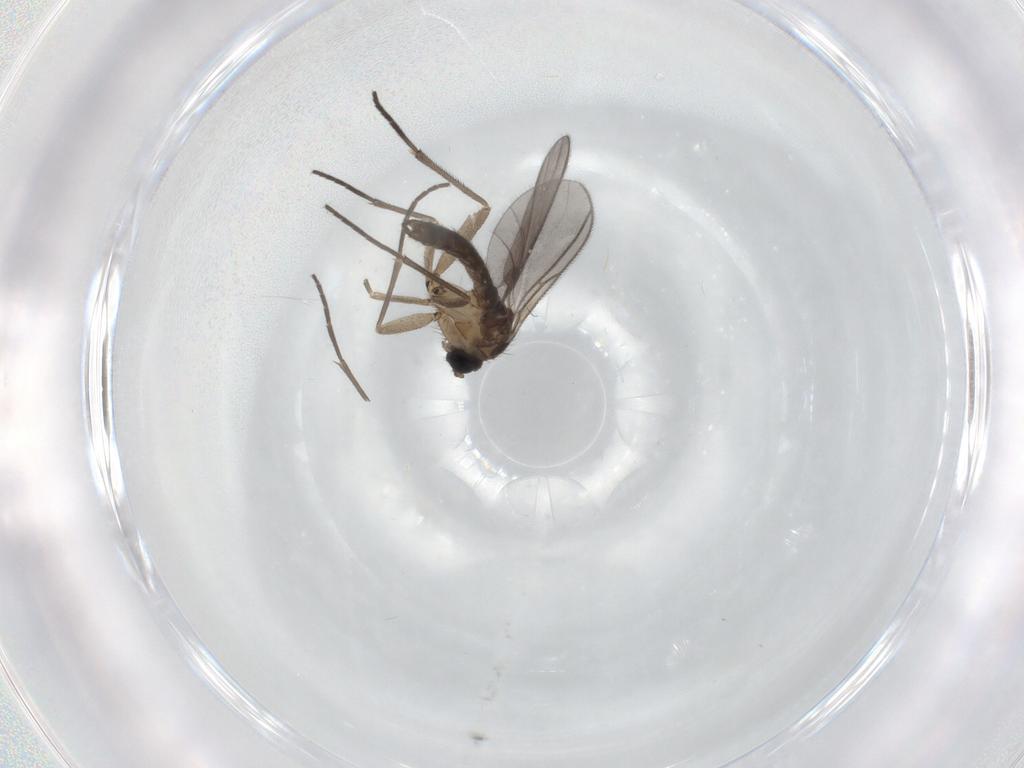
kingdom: Animalia
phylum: Arthropoda
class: Insecta
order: Diptera
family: Sciaridae
